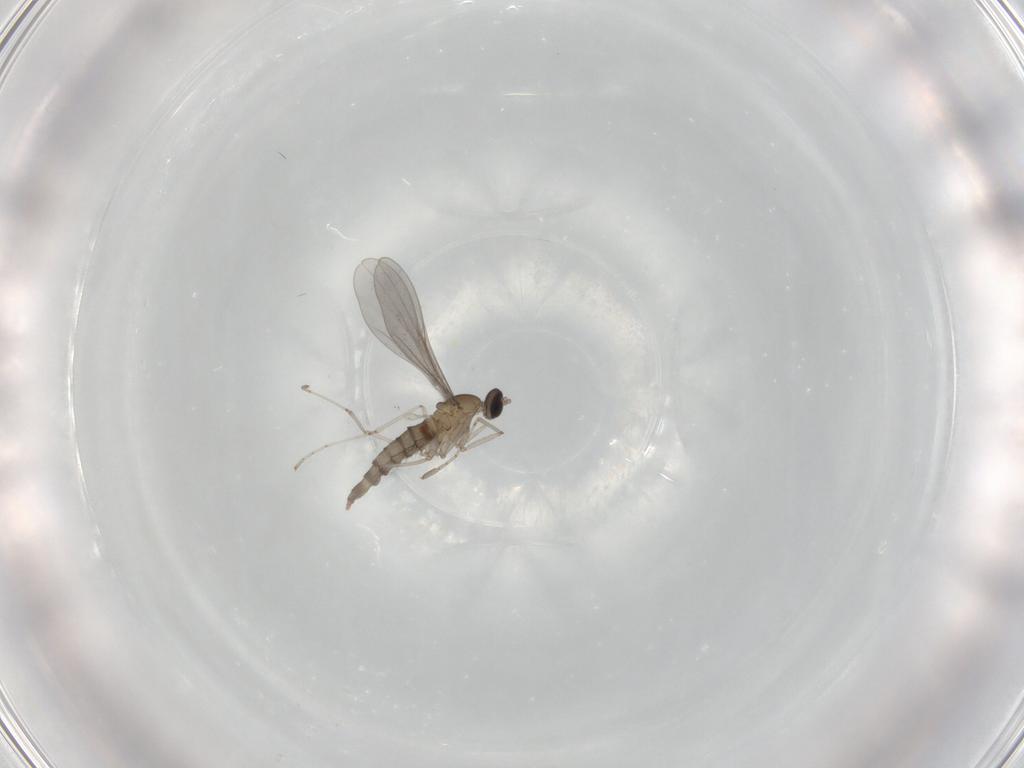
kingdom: Animalia
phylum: Arthropoda
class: Insecta
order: Diptera
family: Cecidomyiidae
